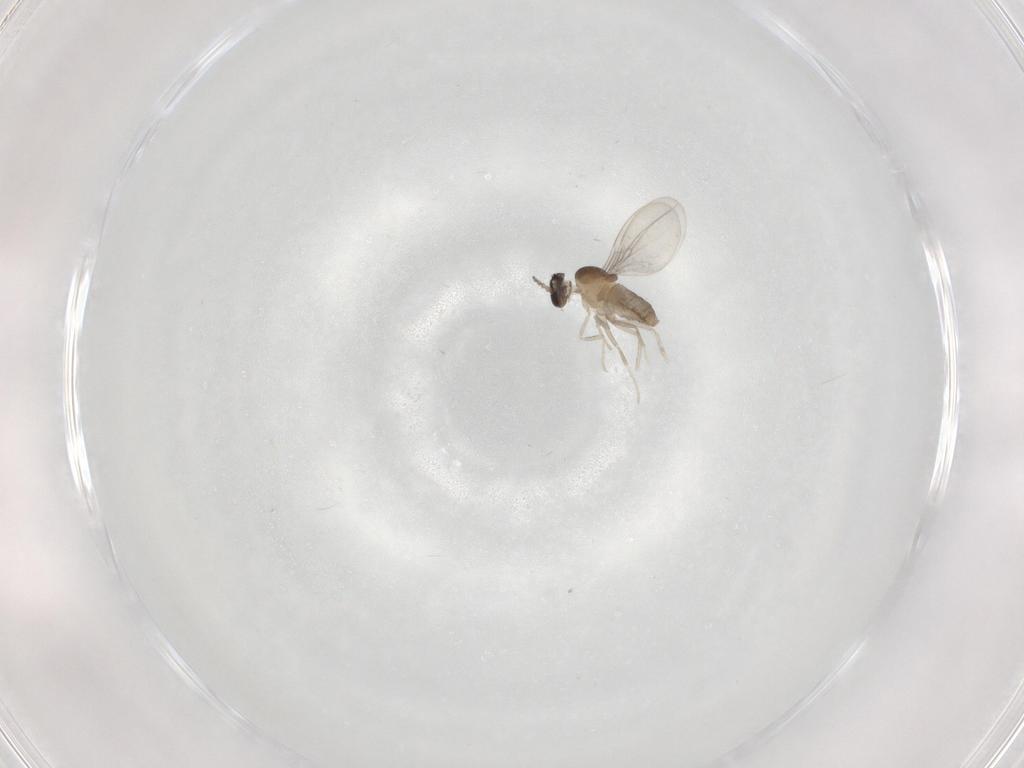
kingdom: Animalia
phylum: Arthropoda
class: Insecta
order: Diptera
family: Cecidomyiidae
